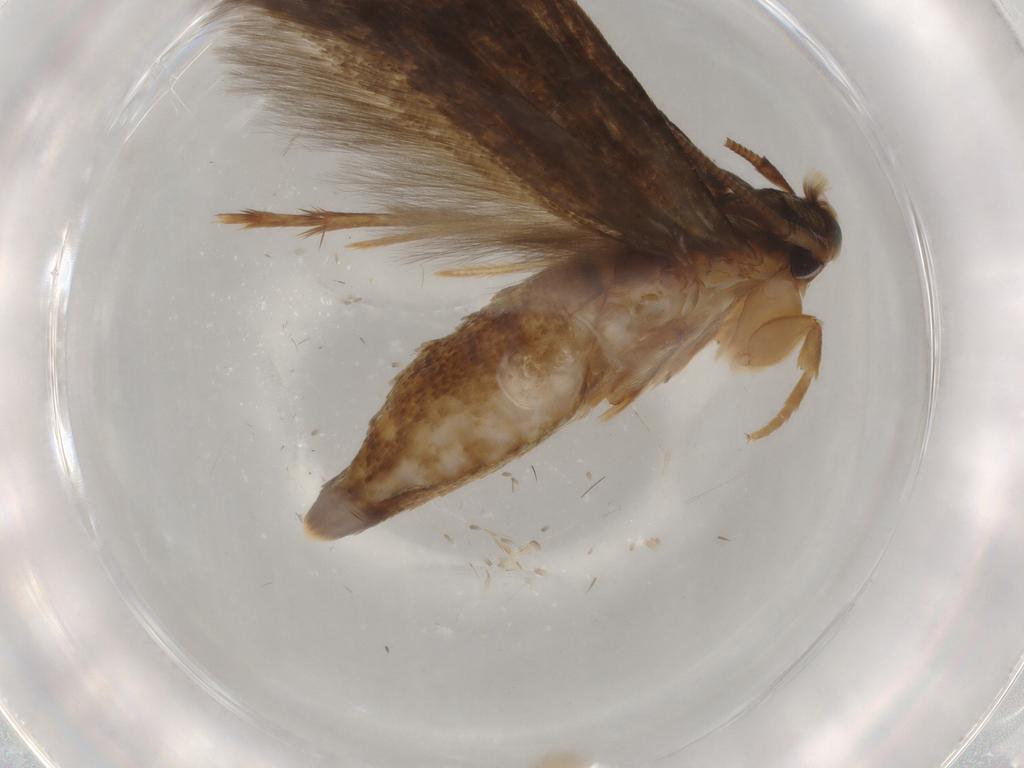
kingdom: Animalia
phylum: Arthropoda
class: Insecta
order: Lepidoptera
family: Tineidae
